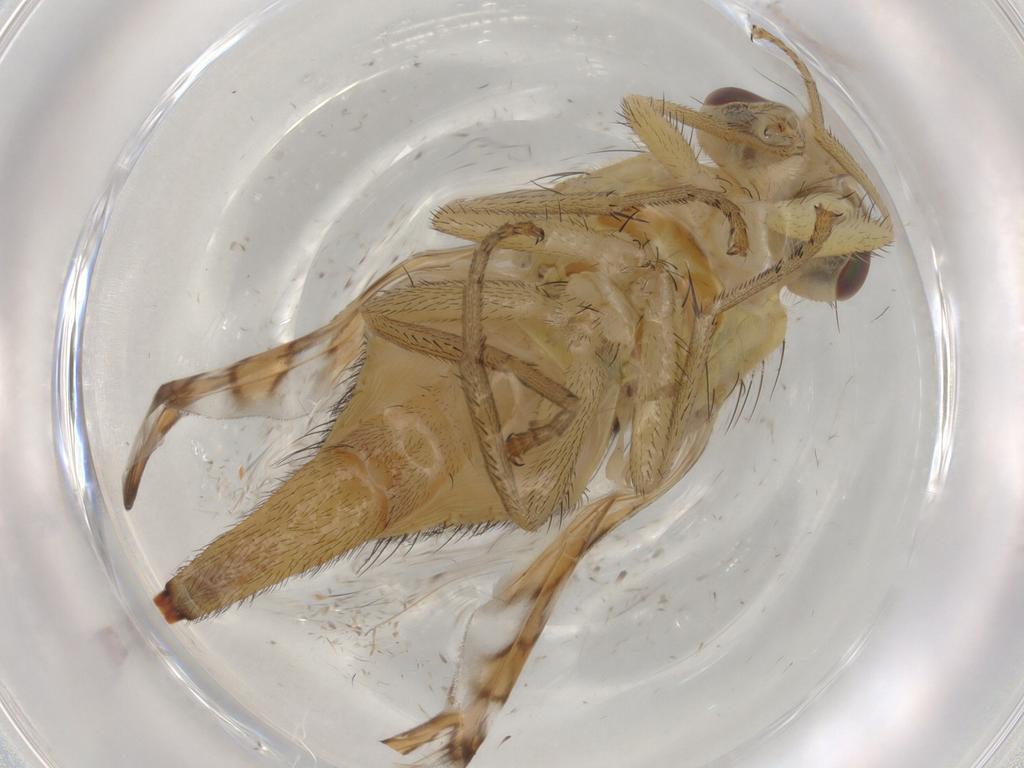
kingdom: Animalia
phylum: Arthropoda
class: Insecta
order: Diptera
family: Tephritidae
